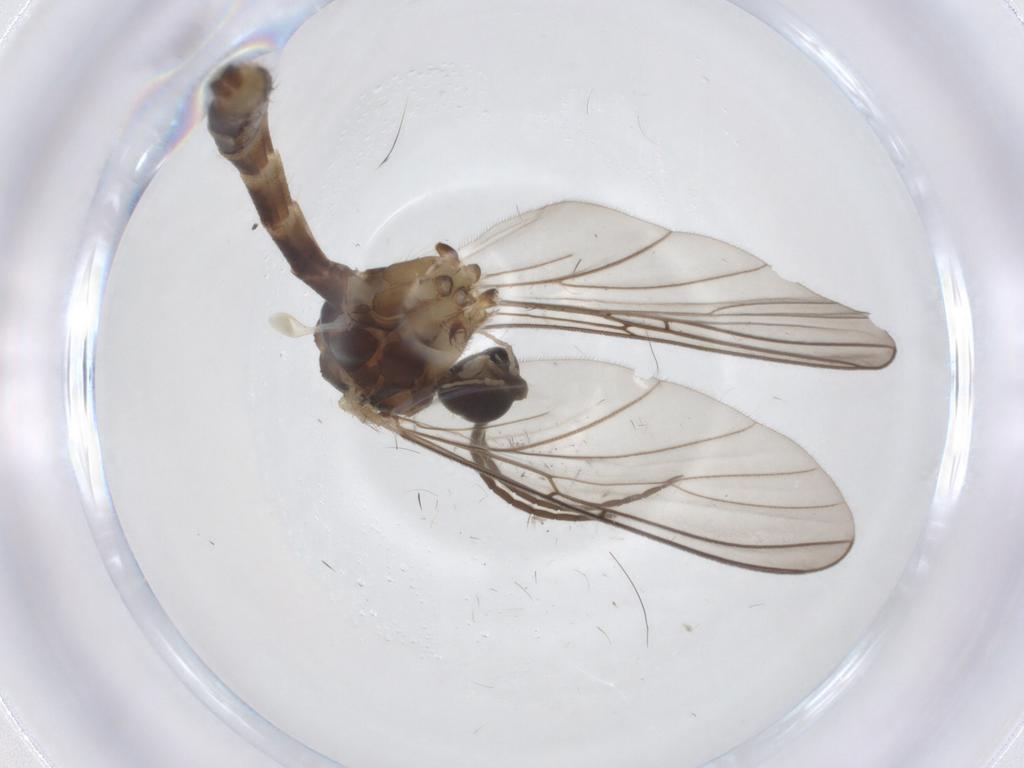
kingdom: Animalia
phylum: Arthropoda
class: Insecta
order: Diptera
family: Mycetophilidae
